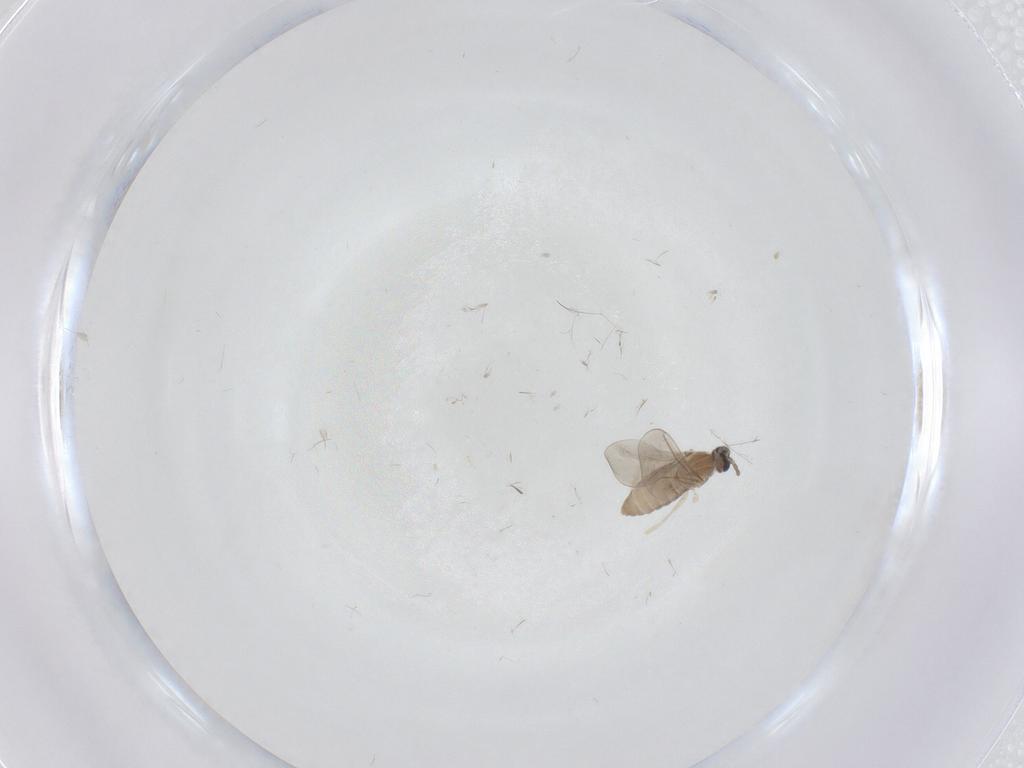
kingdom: Animalia
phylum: Arthropoda
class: Insecta
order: Diptera
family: Cecidomyiidae
